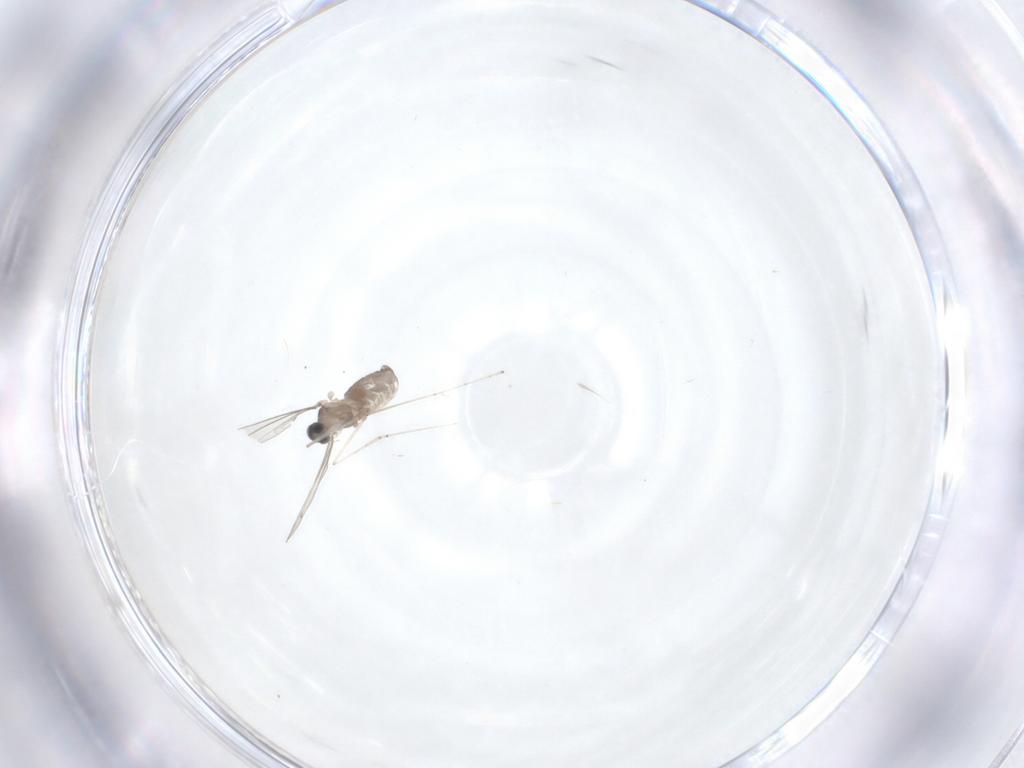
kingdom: Animalia
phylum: Arthropoda
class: Insecta
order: Diptera
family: Cecidomyiidae
